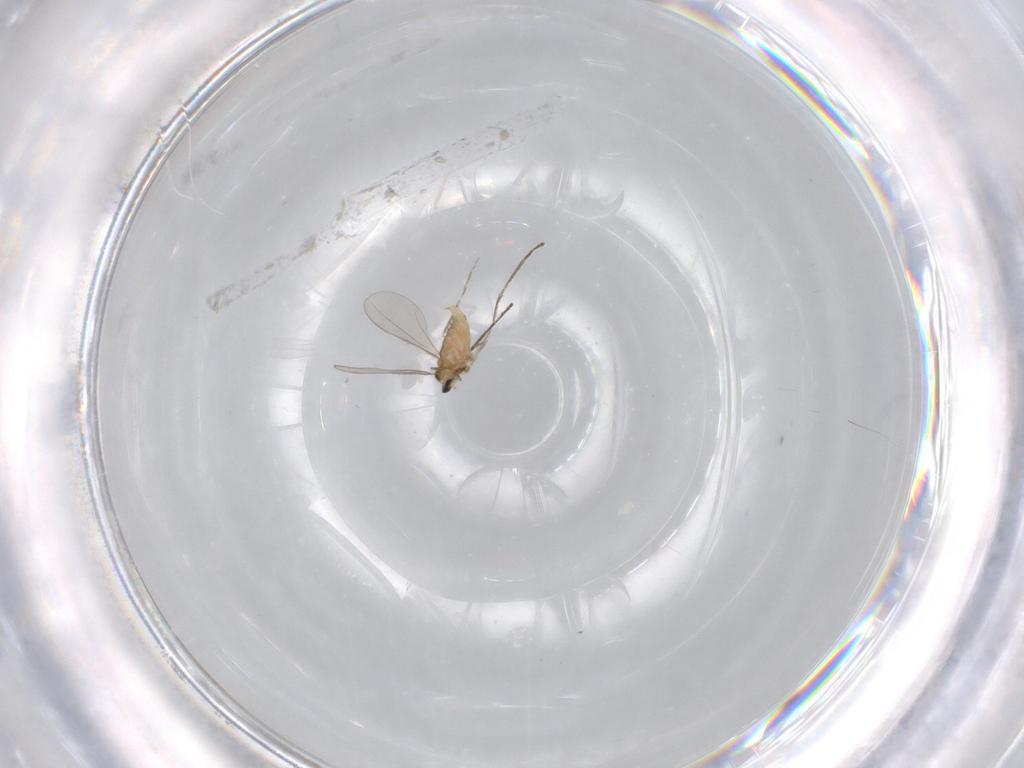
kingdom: Animalia
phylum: Arthropoda
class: Insecta
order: Diptera
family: Cecidomyiidae
